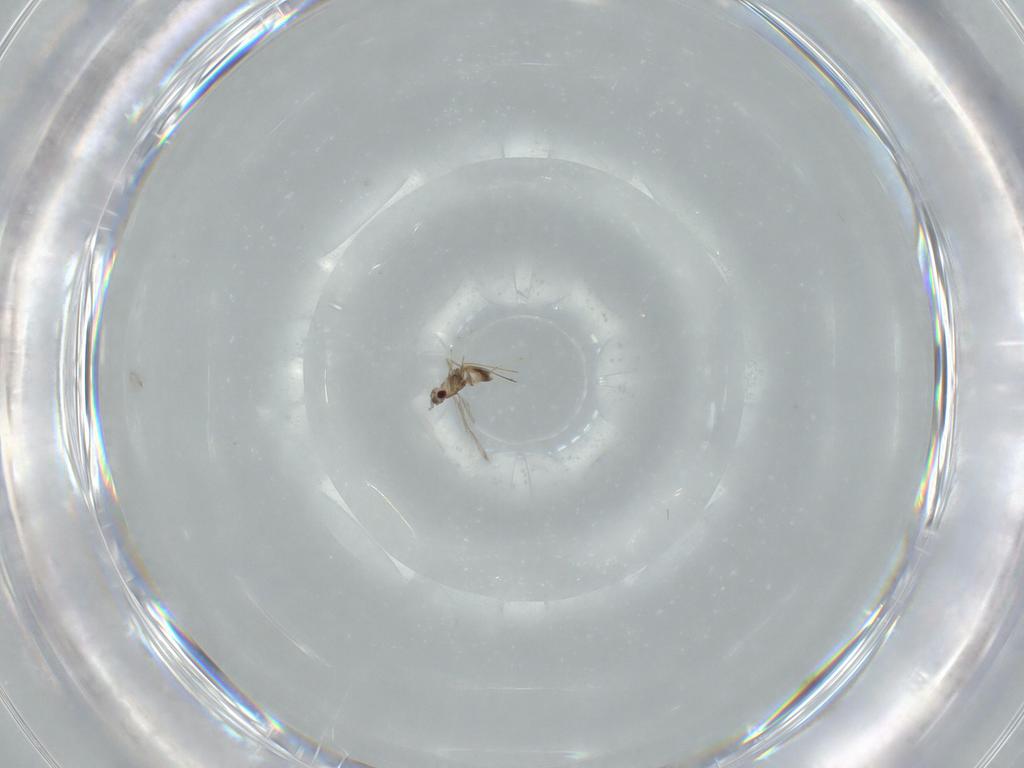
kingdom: Animalia
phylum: Arthropoda
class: Insecta
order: Hymenoptera
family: Mymaridae
